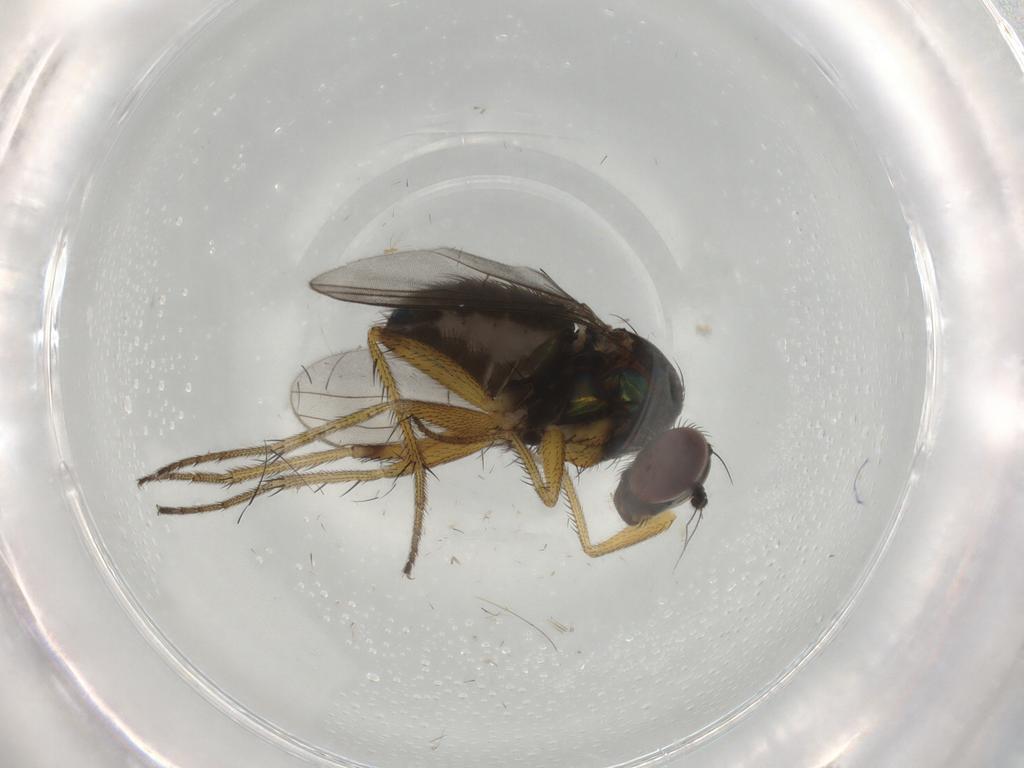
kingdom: Animalia
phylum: Arthropoda
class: Insecta
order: Diptera
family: Dolichopodidae
